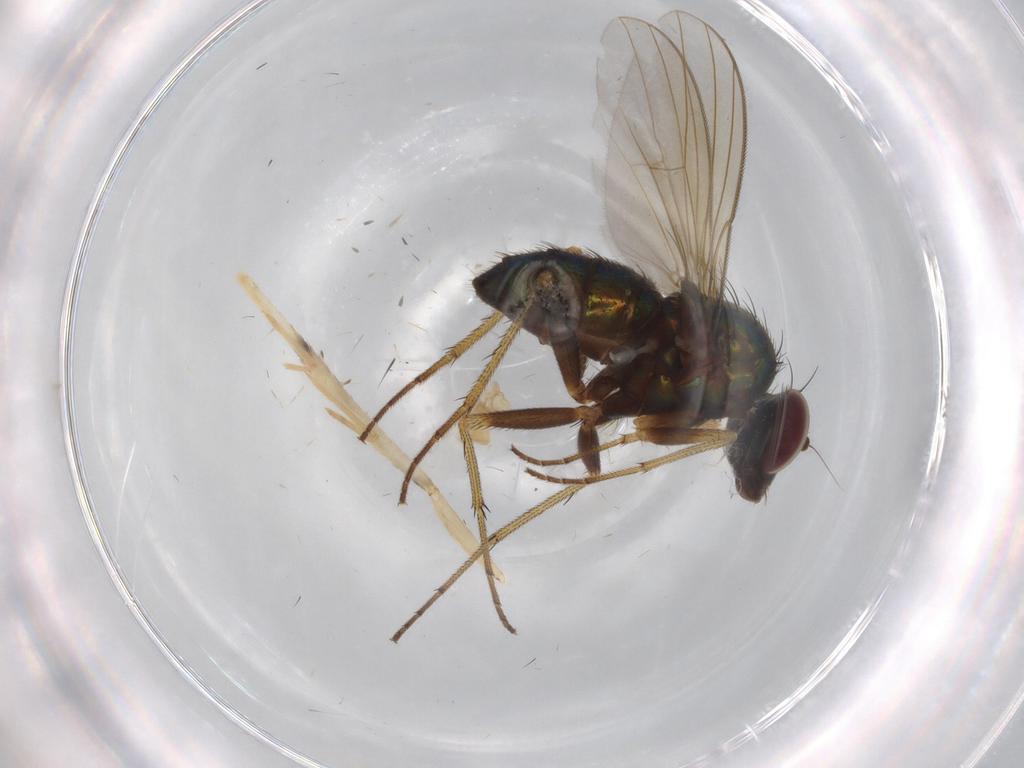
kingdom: Animalia
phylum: Arthropoda
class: Insecta
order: Diptera
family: Ceratopogonidae
